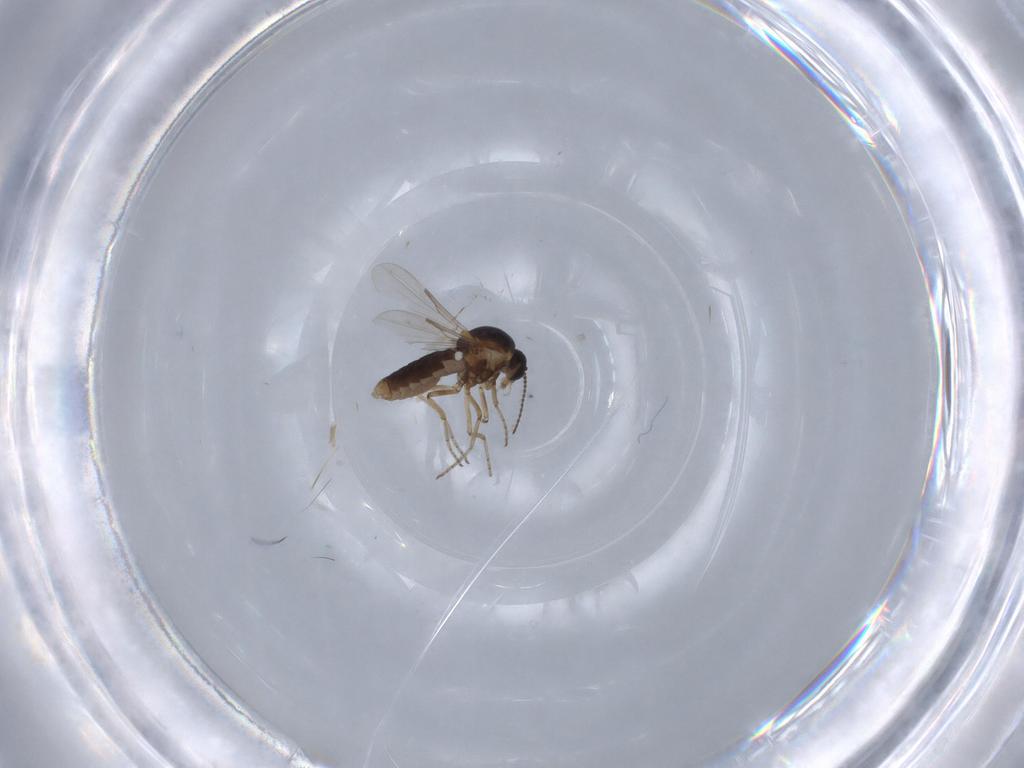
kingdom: Animalia
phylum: Arthropoda
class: Insecta
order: Diptera
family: Ceratopogonidae
